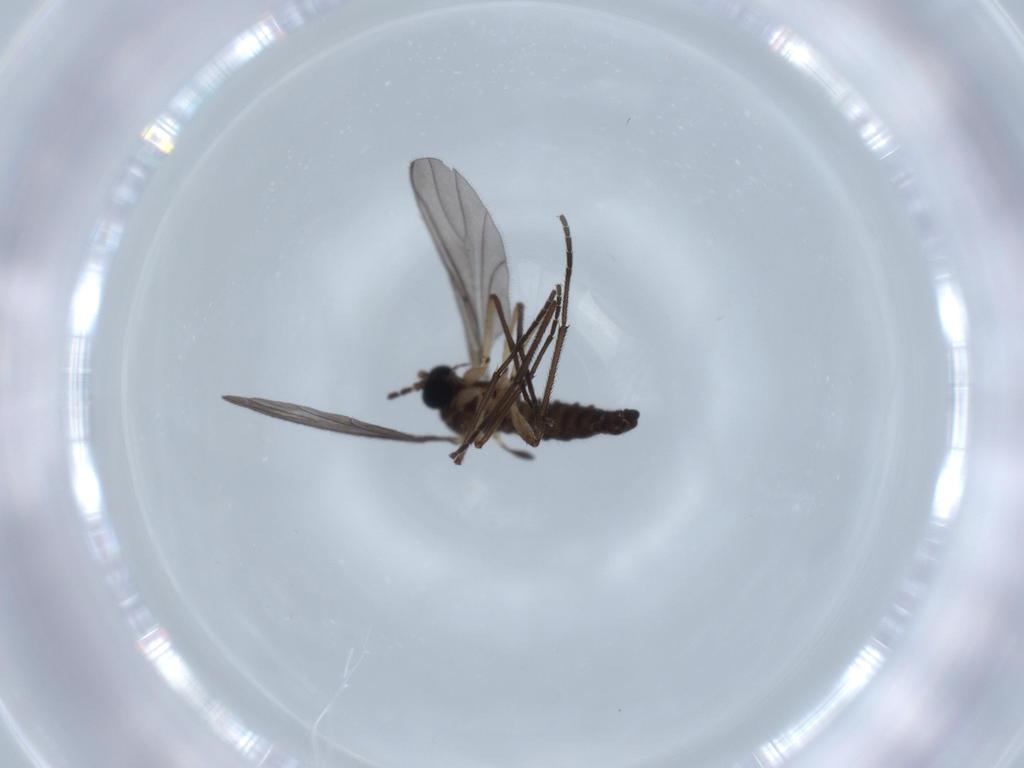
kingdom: Animalia
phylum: Arthropoda
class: Insecta
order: Diptera
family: Sciaridae
